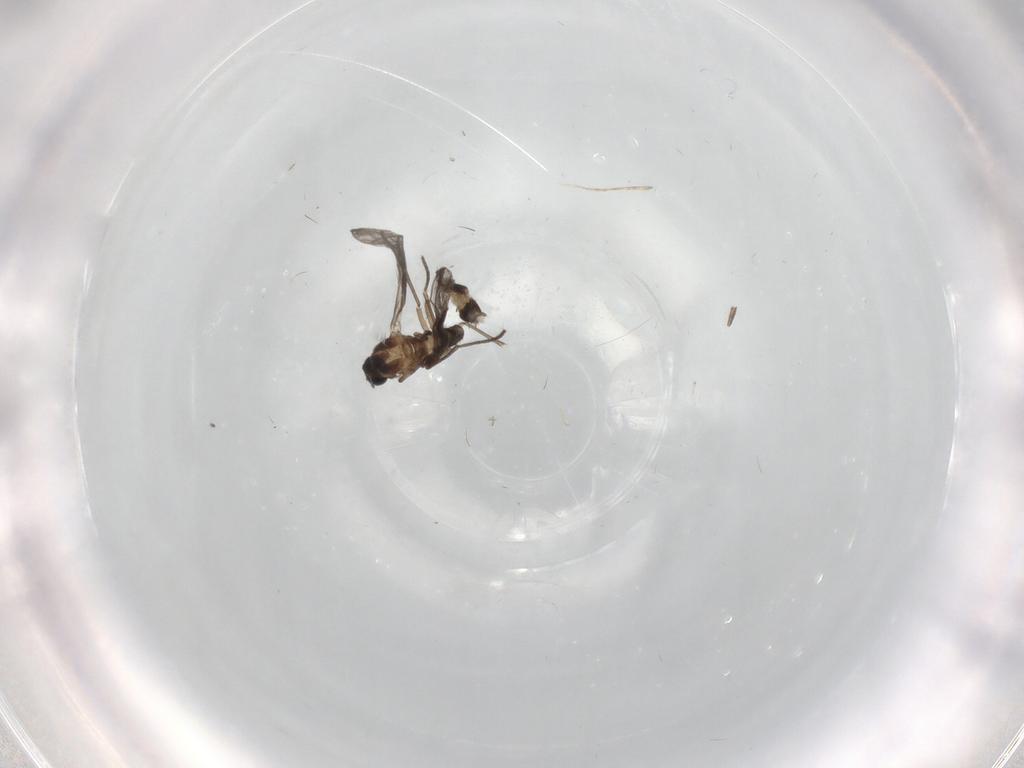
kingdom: Animalia
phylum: Arthropoda
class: Insecta
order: Diptera
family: Sciaridae
